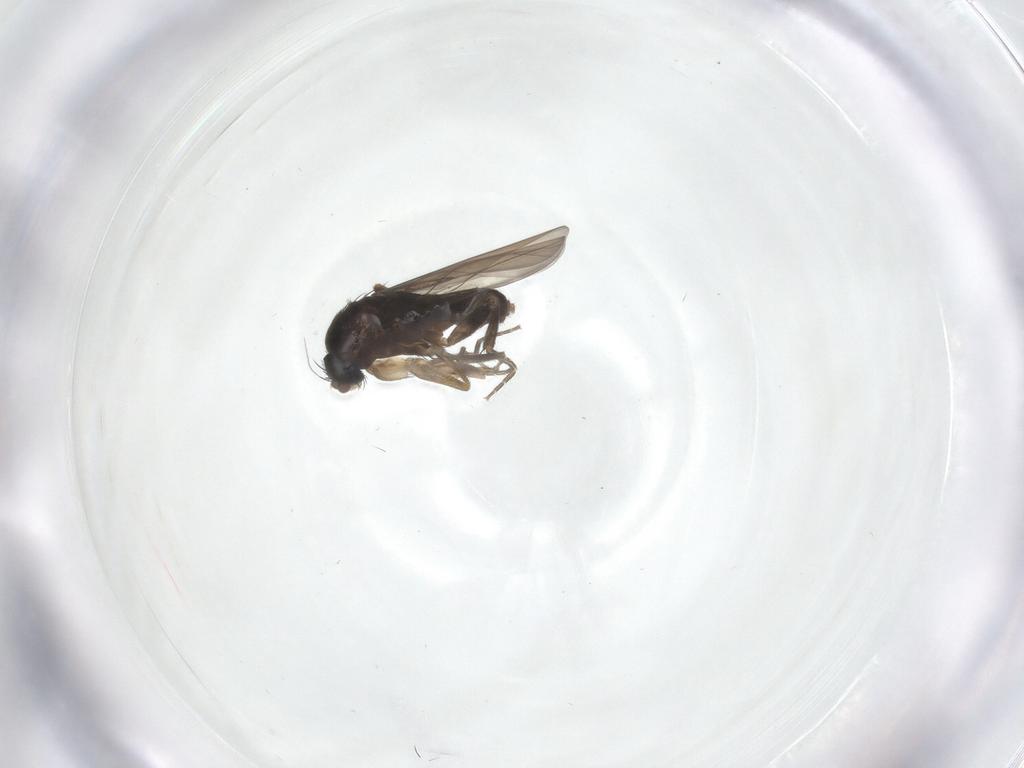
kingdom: Animalia
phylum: Arthropoda
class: Insecta
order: Diptera
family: Phoridae
